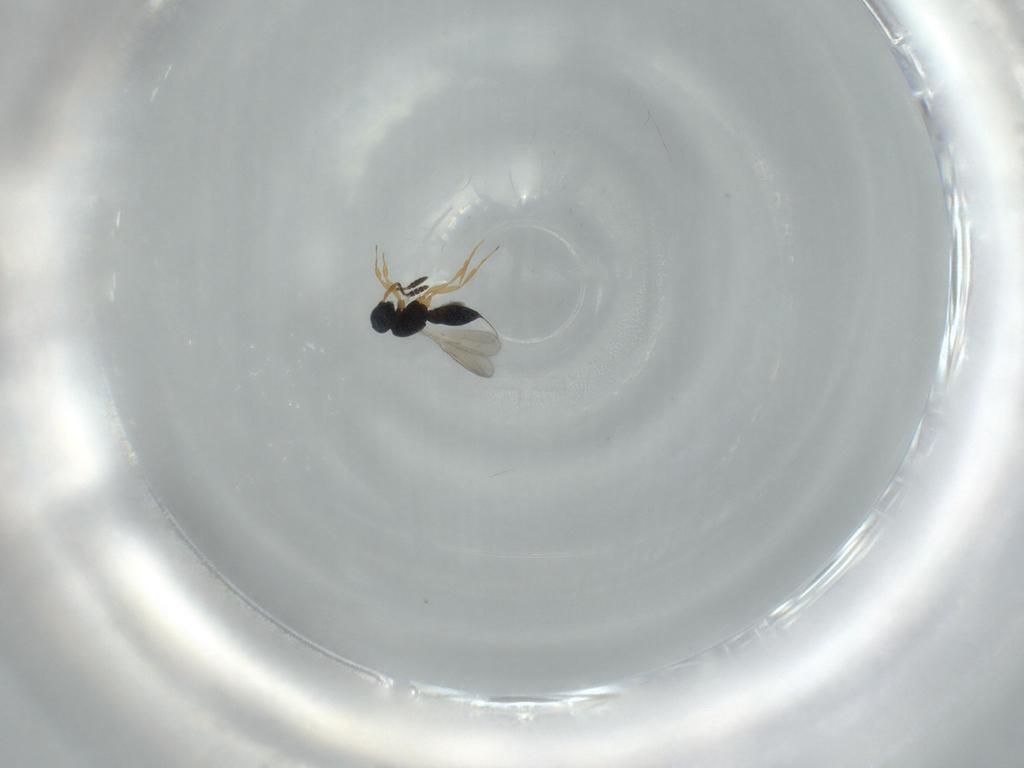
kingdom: Animalia
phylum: Arthropoda
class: Insecta
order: Hymenoptera
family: Scelionidae
